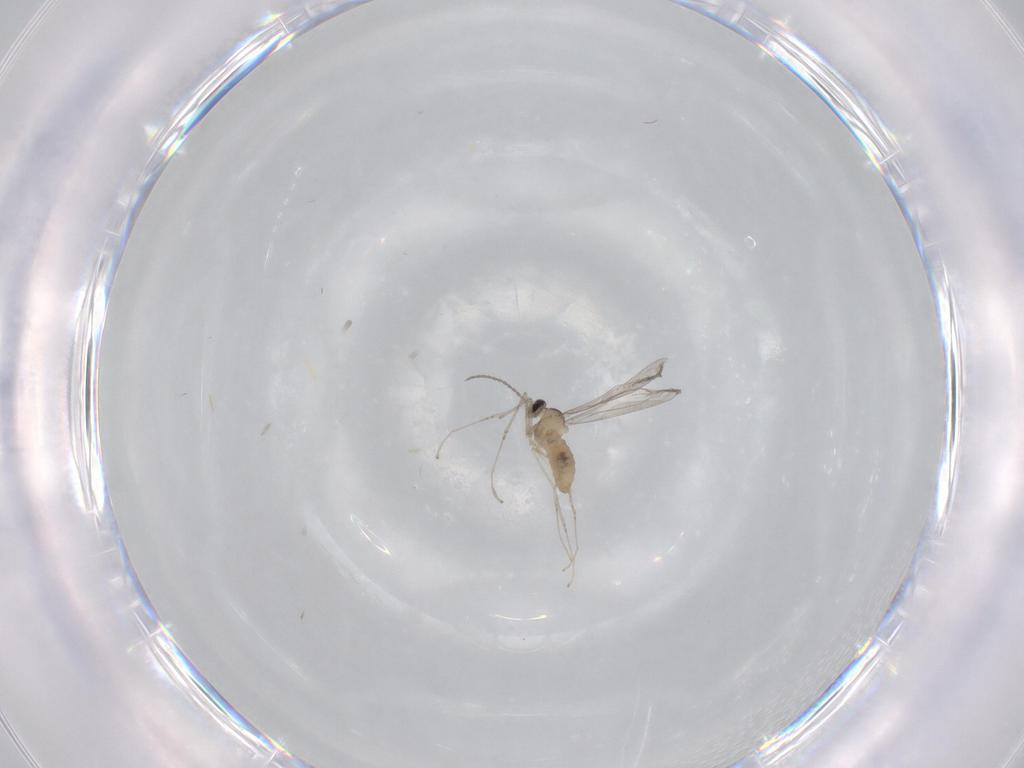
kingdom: Animalia
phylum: Arthropoda
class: Insecta
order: Diptera
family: Cecidomyiidae
